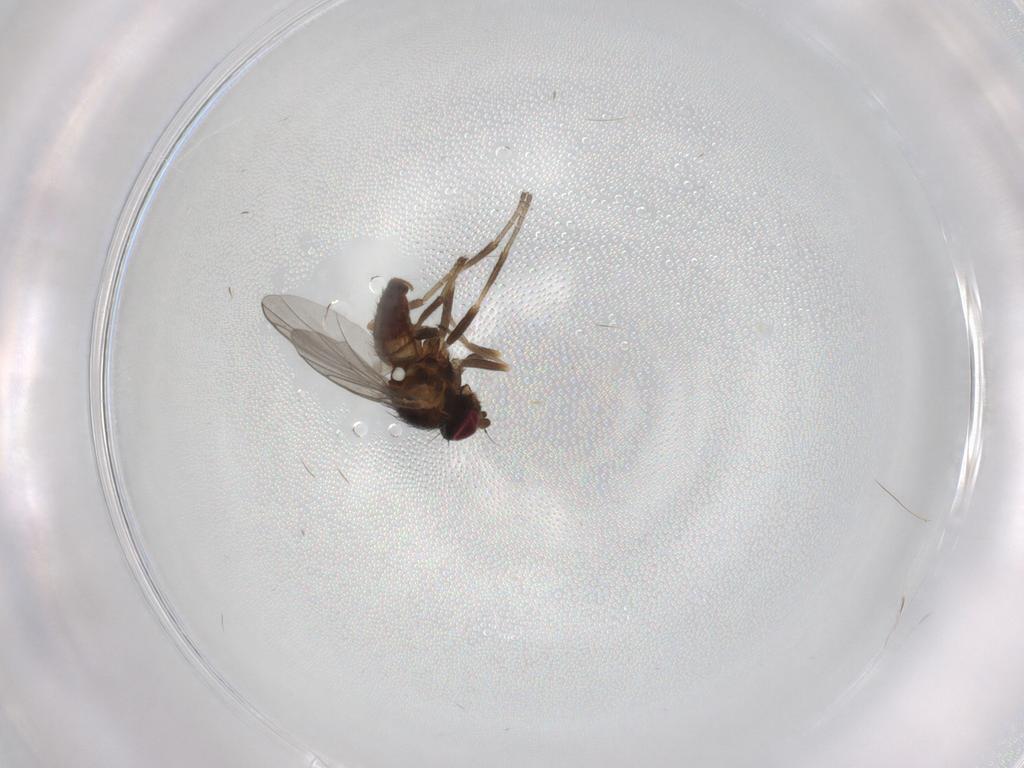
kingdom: Animalia
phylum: Arthropoda
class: Insecta
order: Diptera
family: Agromyzidae
